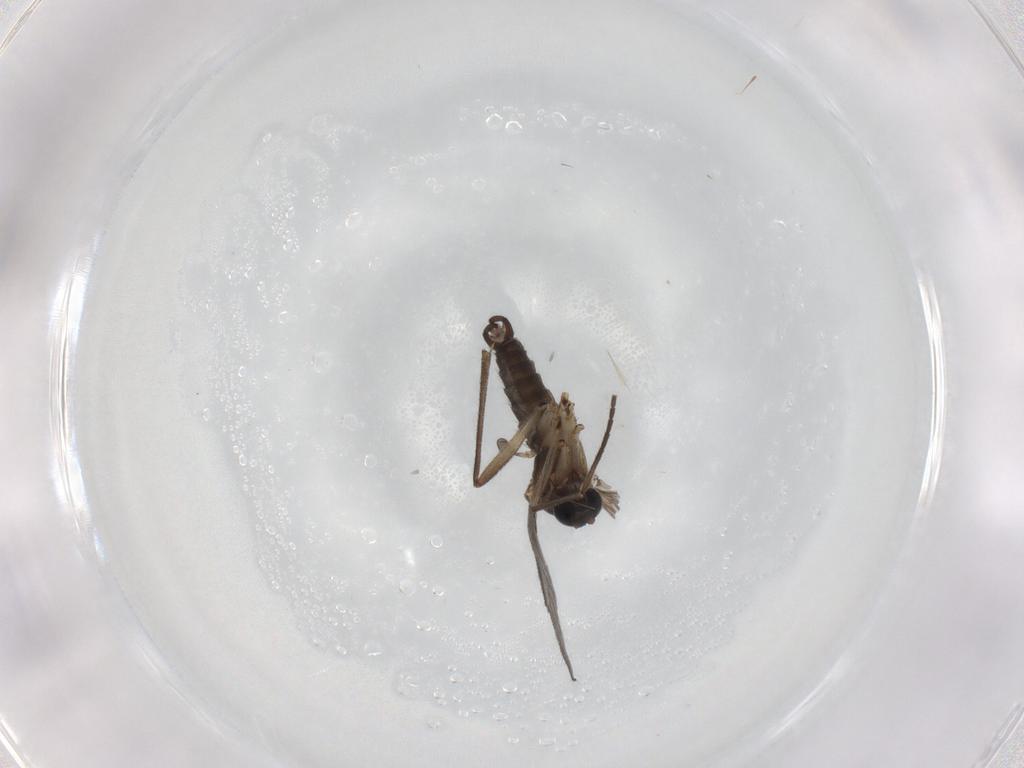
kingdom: Animalia
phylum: Arthropoda
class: Insecta
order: Diptera
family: Sciaridae
